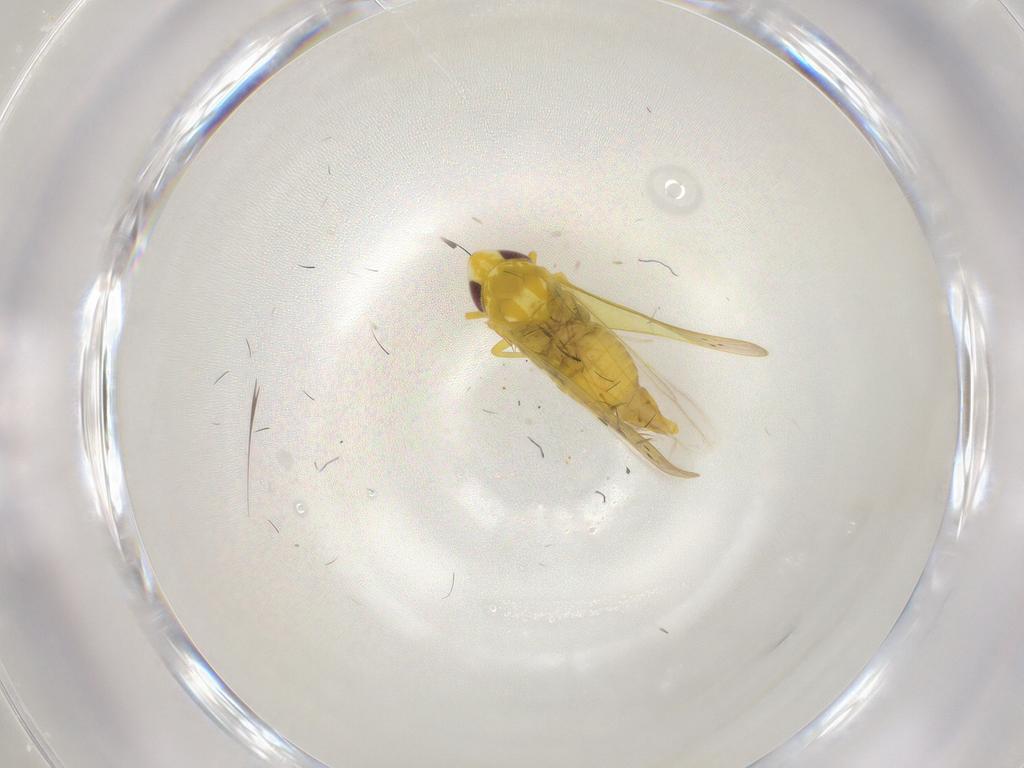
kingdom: Animalia
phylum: Arthropoda
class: Insecta
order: Hemiptera
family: Cicadellidae
